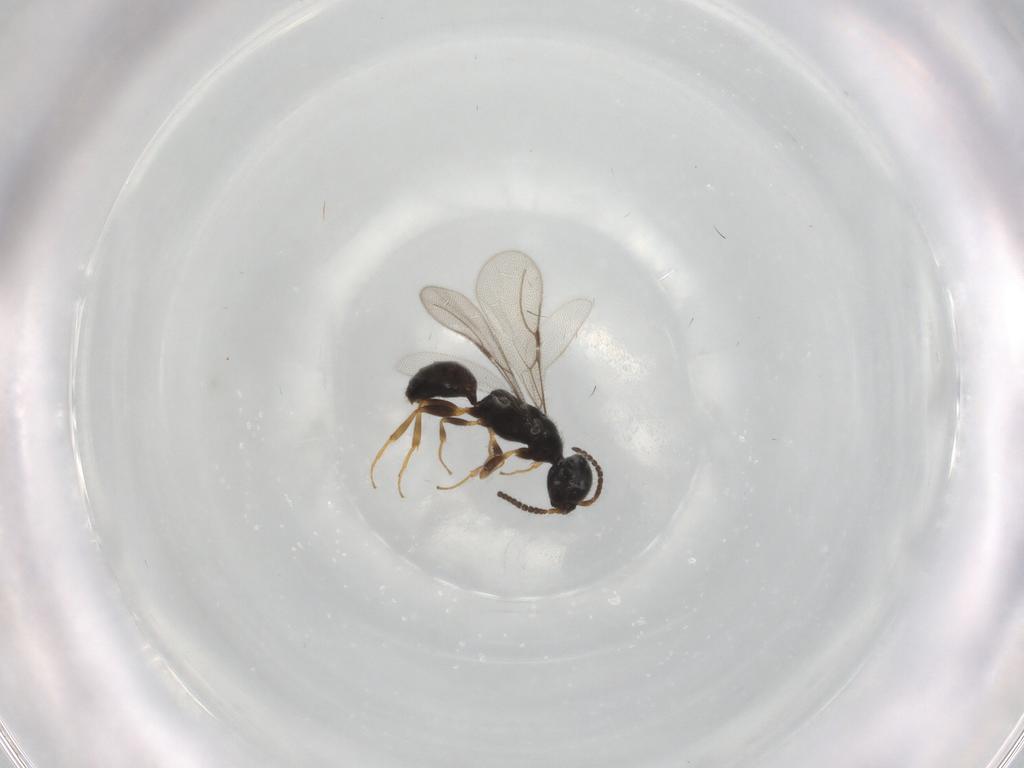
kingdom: Animalia
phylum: Arthropoda
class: Insecta
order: Hymenoptera
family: Bethylidae
